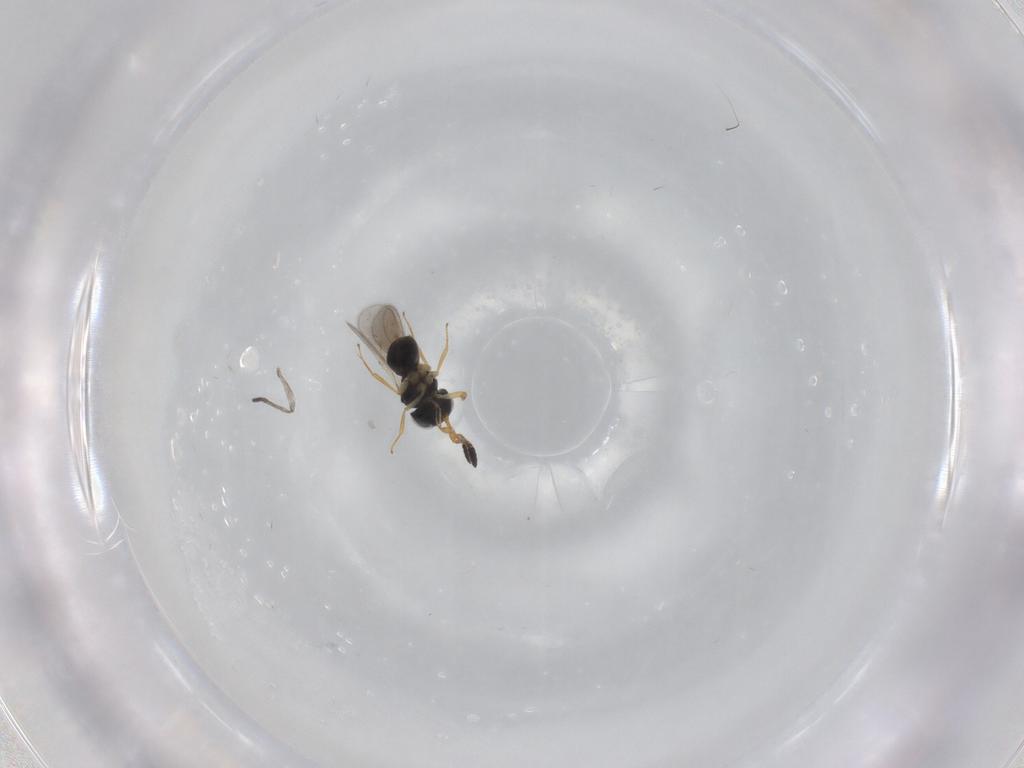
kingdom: Animalia
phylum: Arthropoda
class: Insecta
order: Hymenoptera
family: Scelionidae
